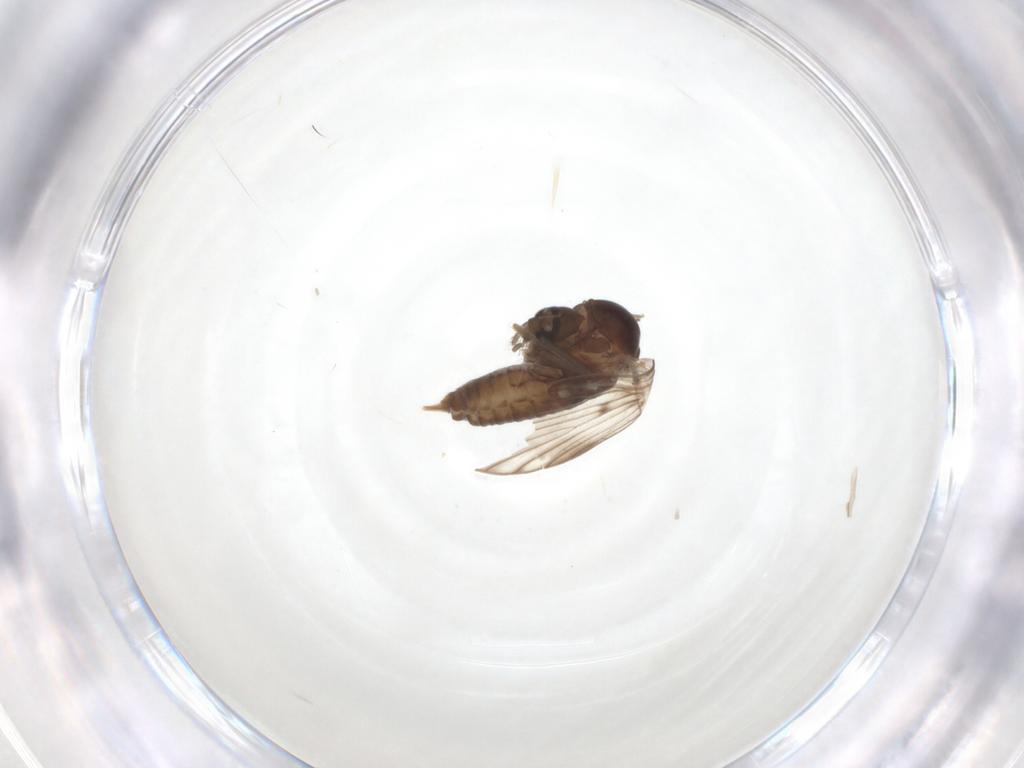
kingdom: Animalia
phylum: Arthropoda
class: Insecta
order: Diptera
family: Psychodidae
